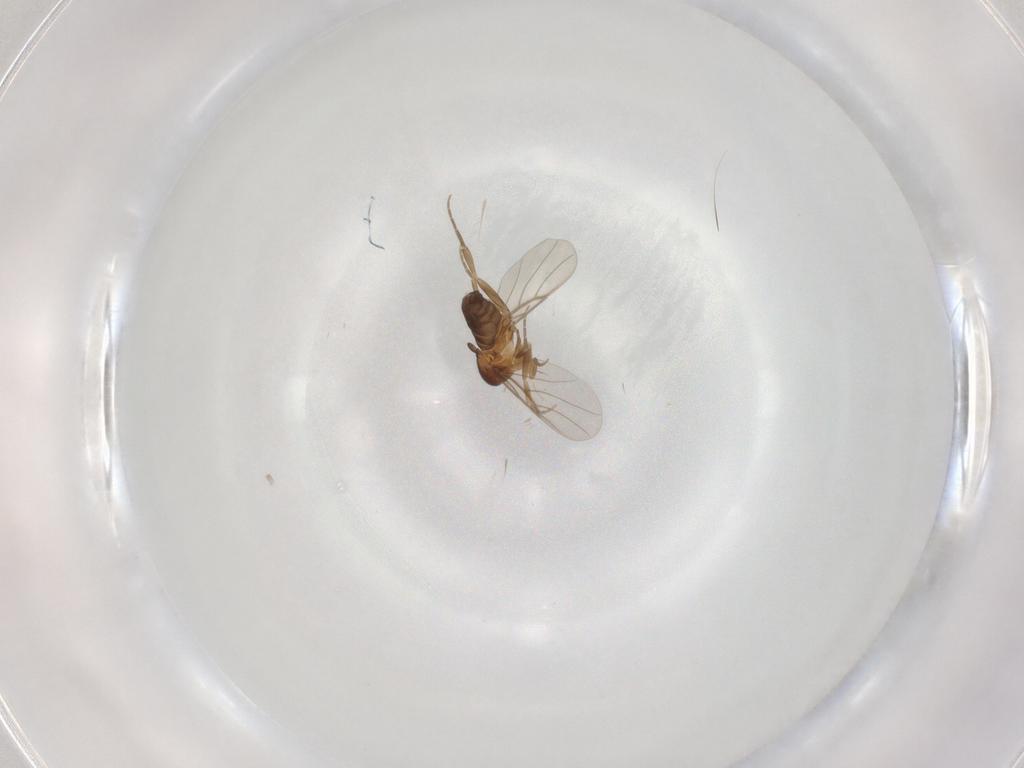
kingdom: Animalia
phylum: Arthropoda
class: Insecta
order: Diptera
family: Phoridae
